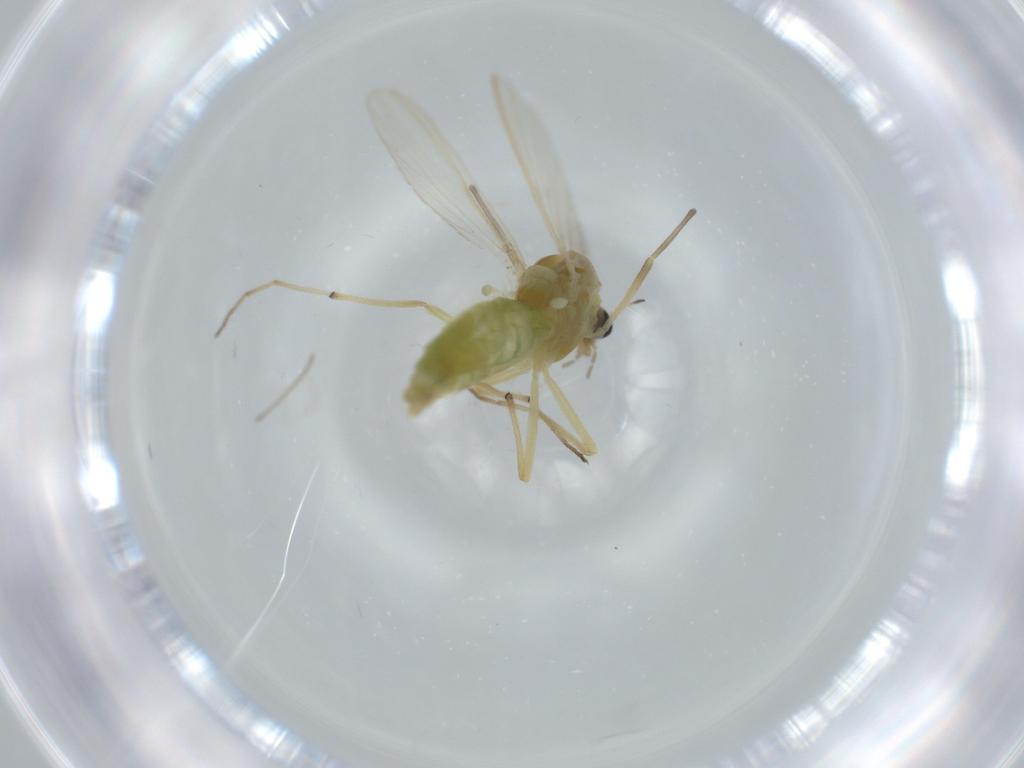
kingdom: Animalia
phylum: Arthropoda
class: Insecta
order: Diptera
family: Chironomidae
